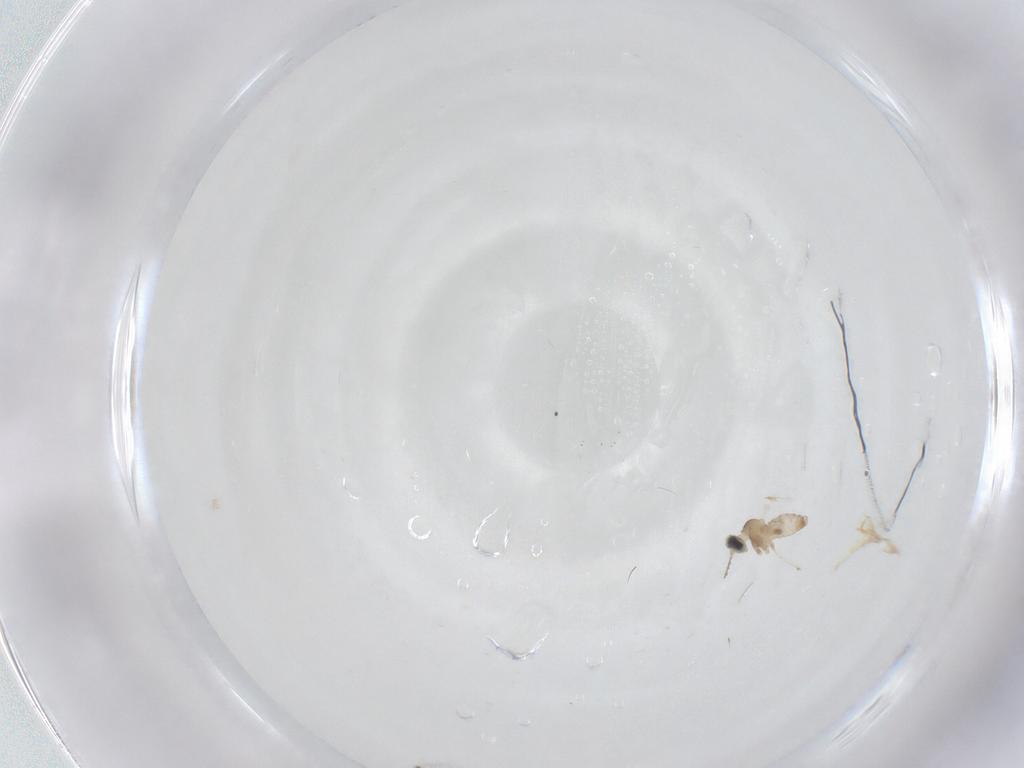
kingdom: Animalia
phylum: Arthropoda
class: Insecta
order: Diptera
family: Cecidomyiidae
